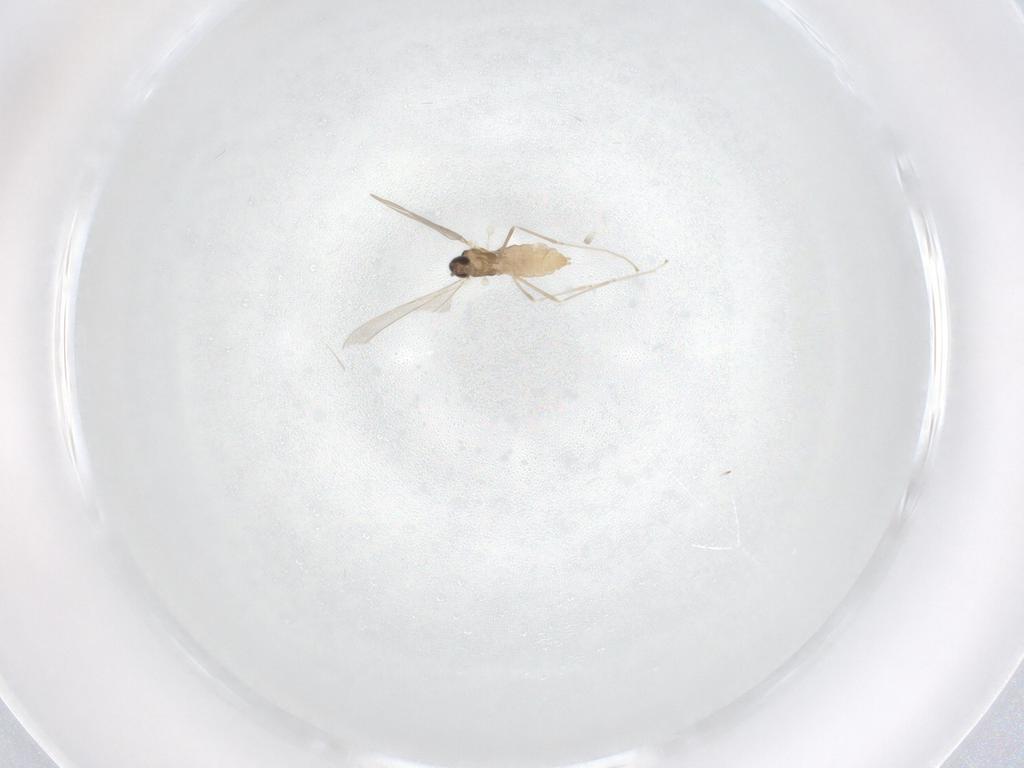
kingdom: Animalia
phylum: Arthropoda
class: Insecta
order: Diptera
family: Cecidomyiidae
